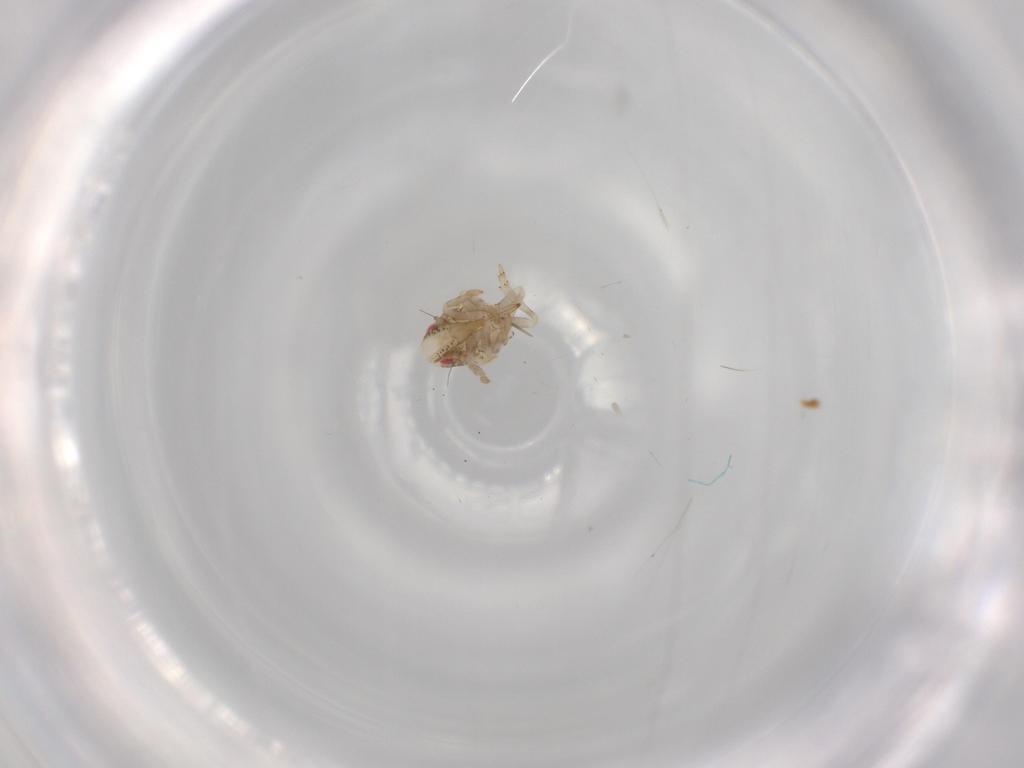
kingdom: Animalia
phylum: Arthropoda
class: Insecta
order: Hemiptera
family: Acanaloniidae
